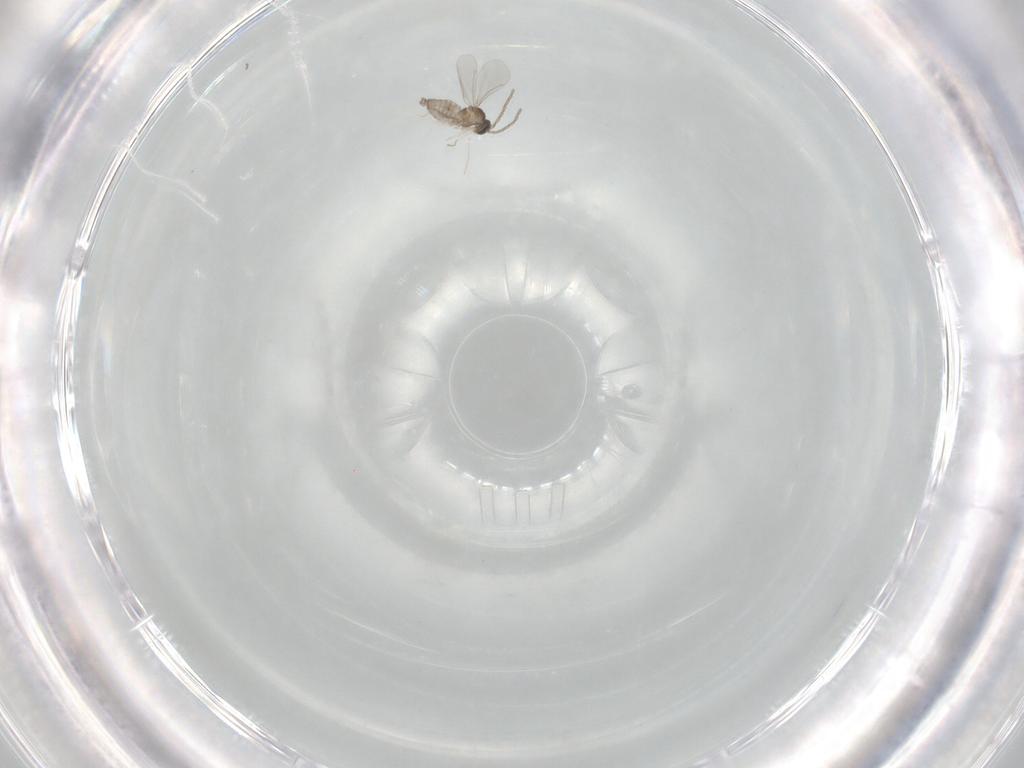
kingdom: Animalia
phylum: Arthropoda
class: Insecta
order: Diptera
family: Cecidomyiidae
